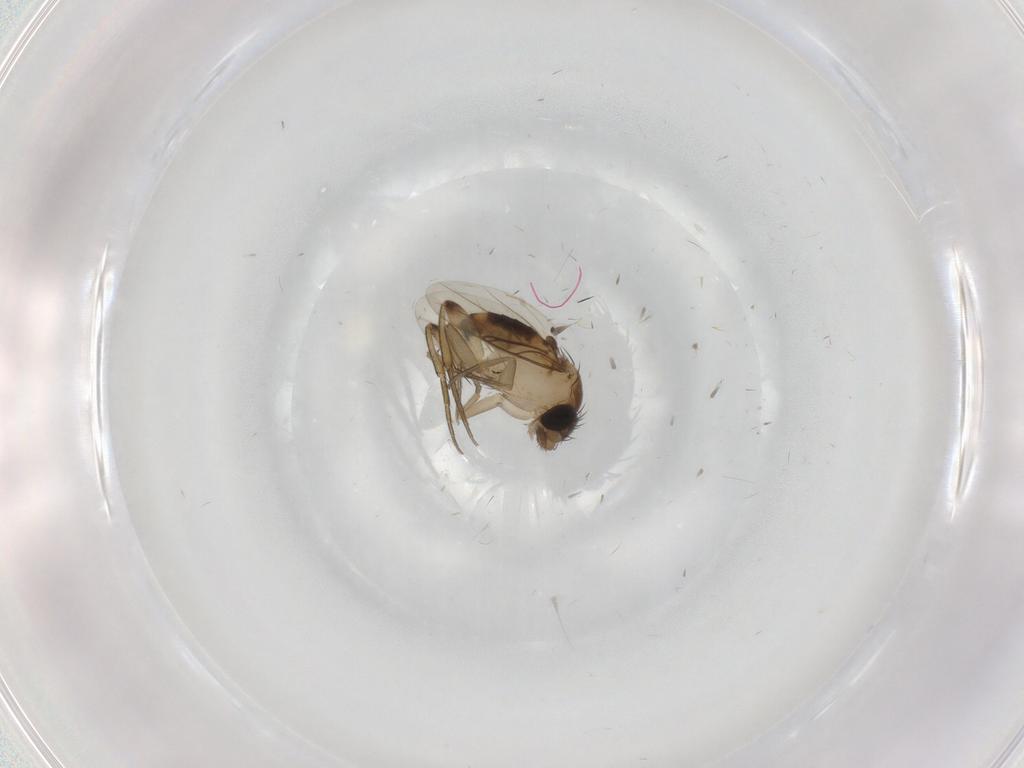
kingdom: Animalia
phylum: Arthropoda
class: Insecta
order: Diptera
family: Phoridae
